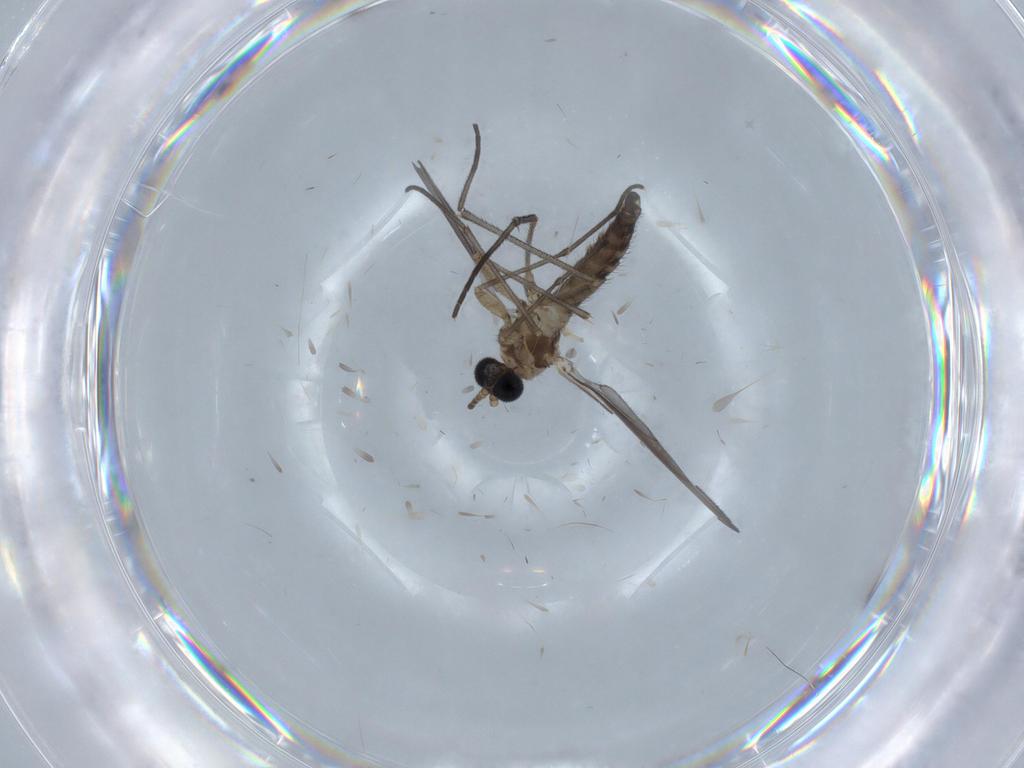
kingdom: Animalia
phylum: Arthropoda
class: Insecta
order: Diptera
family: Sciaridae
